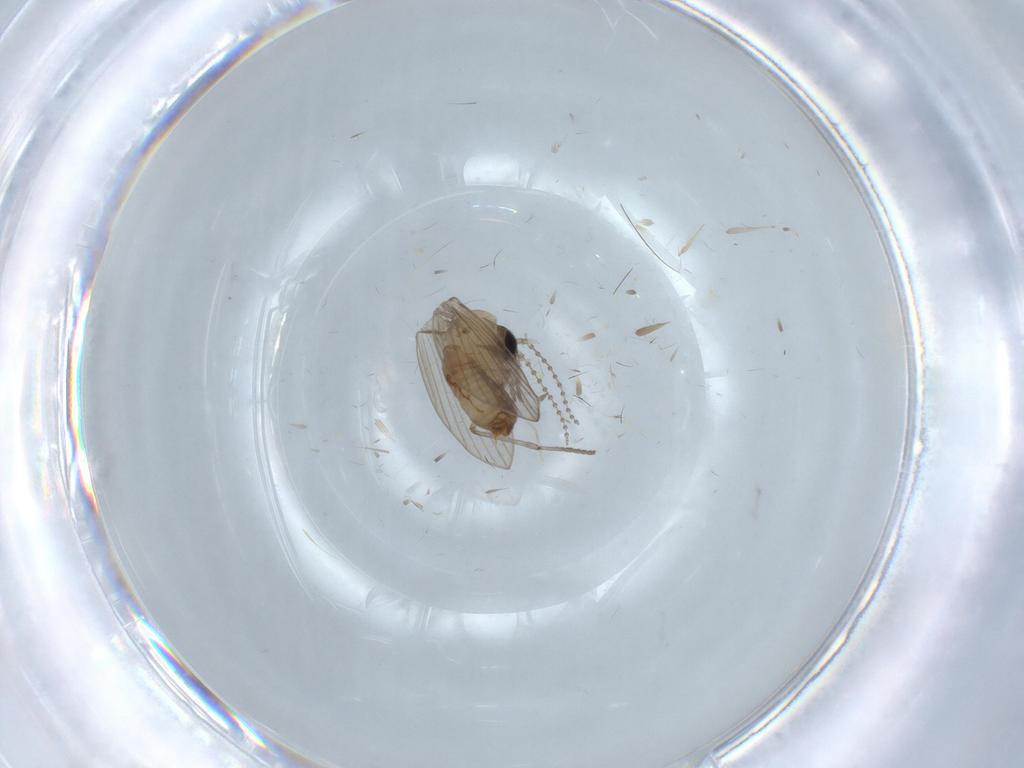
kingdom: Animalia
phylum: Arthropoda
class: Insecta
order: Diptera
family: Psychodidae
